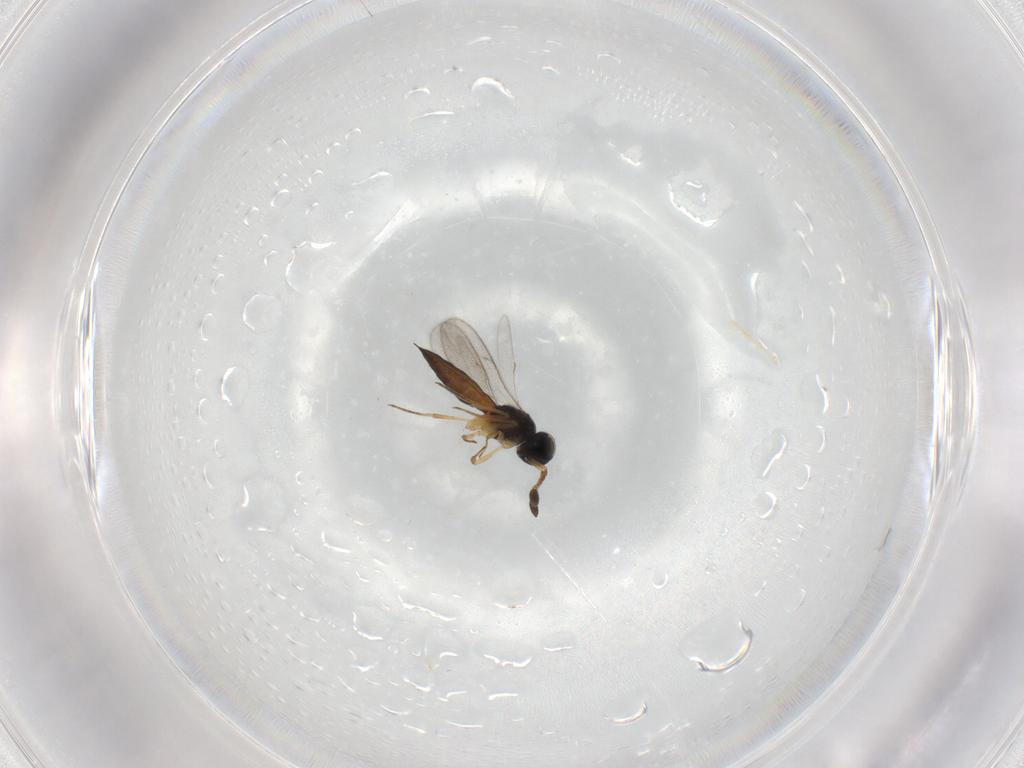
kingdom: Animalia
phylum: Arthropoda
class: Insecta
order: Hymenoptera
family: Scelionidae
